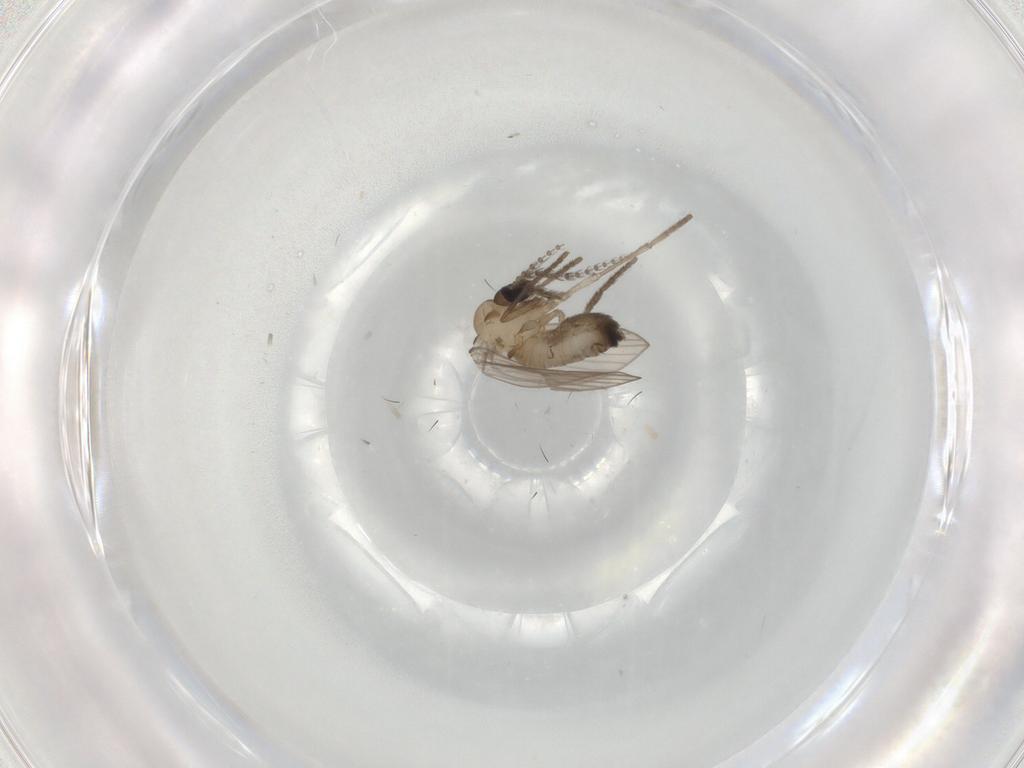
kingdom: Animalia
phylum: Arthropoda
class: Insecta
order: Diptera
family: Psychodidae
